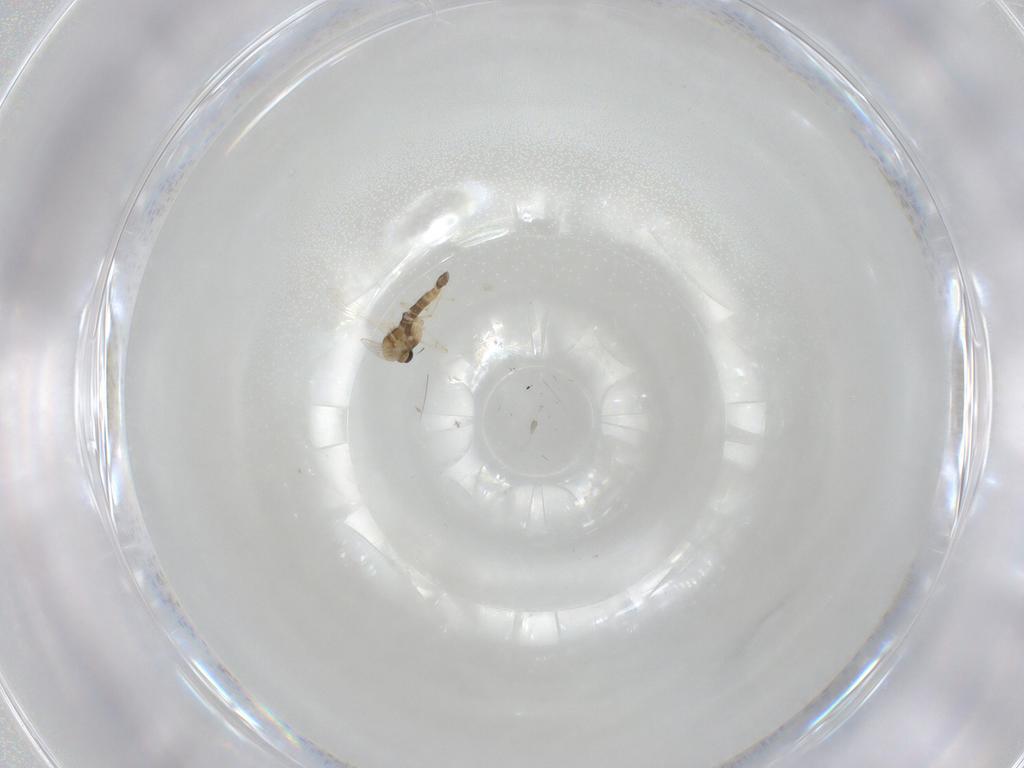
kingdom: Animalia
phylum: Arthropoda
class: Insecta
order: Diptera
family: Chironomidae
